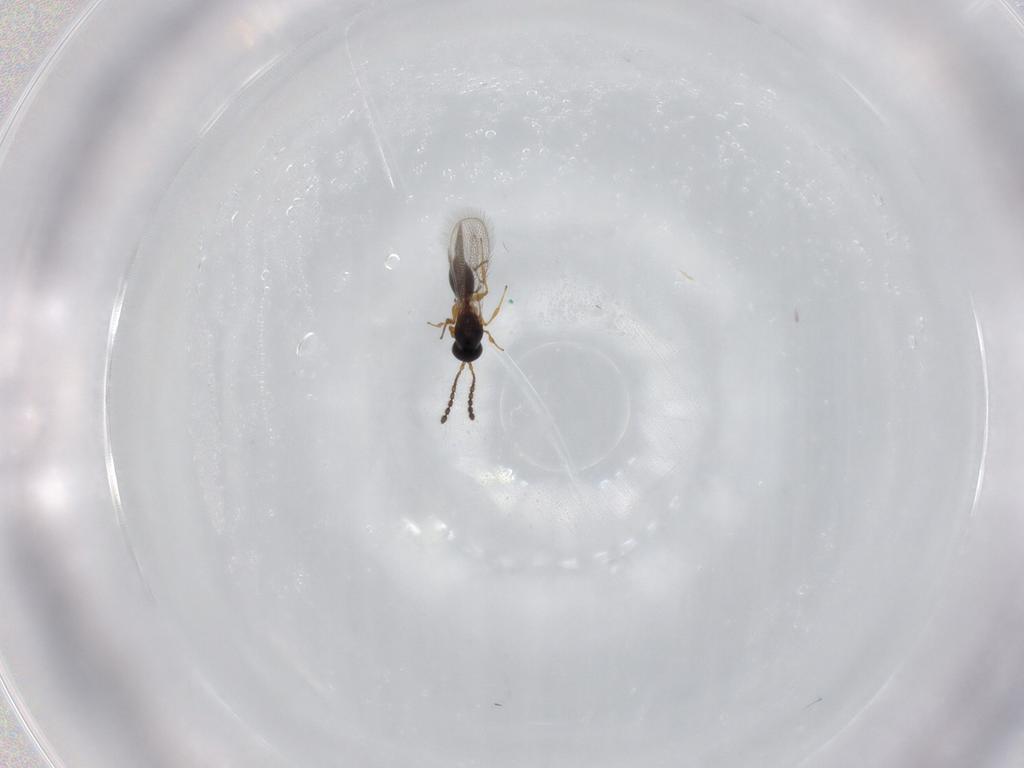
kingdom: Animalia
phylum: Arthropoda
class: Insecta
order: Hymenoptera
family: Figitidae
